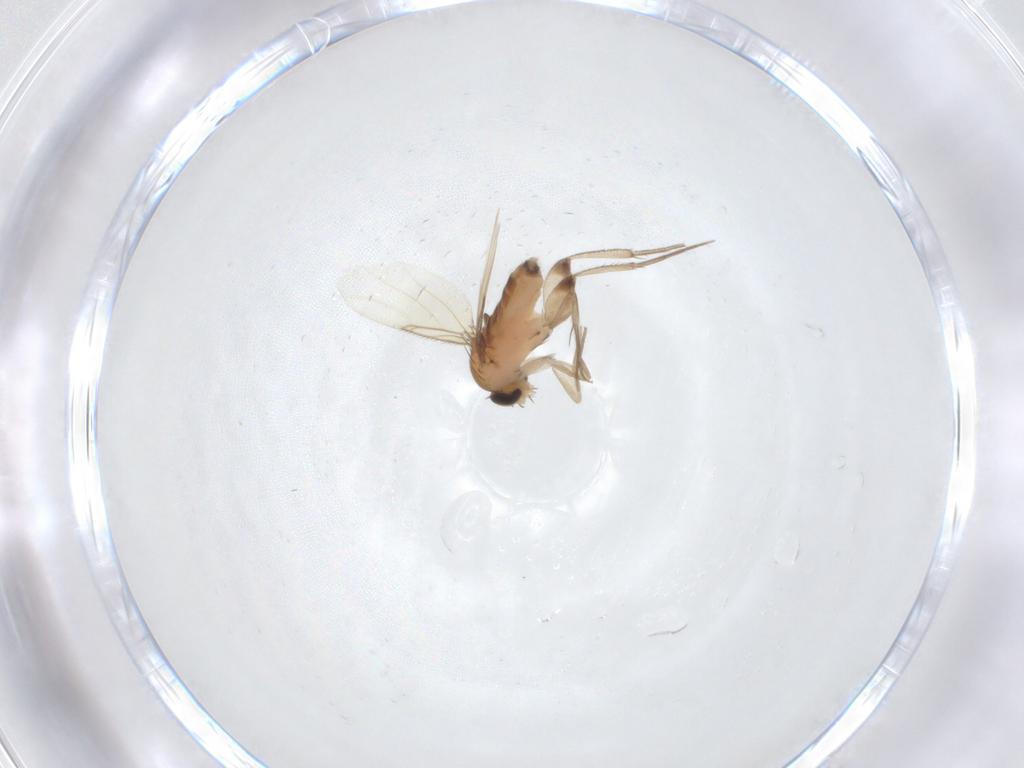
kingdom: Animalia
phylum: Arthropoda
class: Insecta
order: Diptera
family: Phoridae
